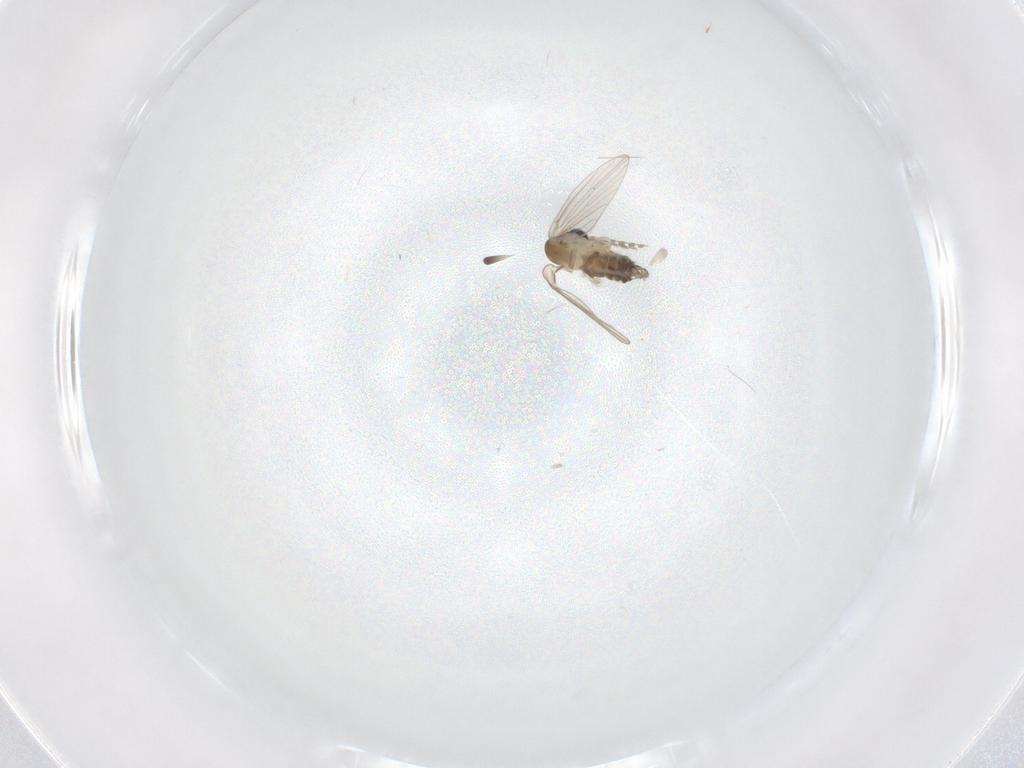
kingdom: Animalia
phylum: Arthropoda
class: Insecta
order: Diptera
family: Psychodidae
